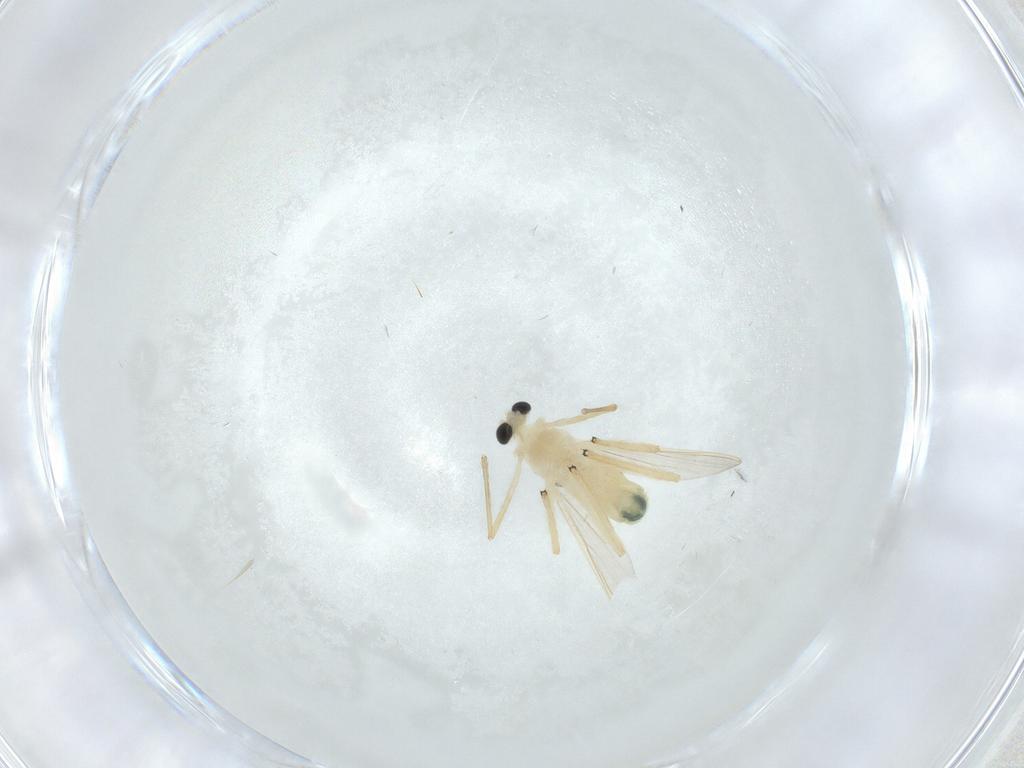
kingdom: Animalia
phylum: Arthropoda
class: Insecta
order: Diptera
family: Chironomidae
